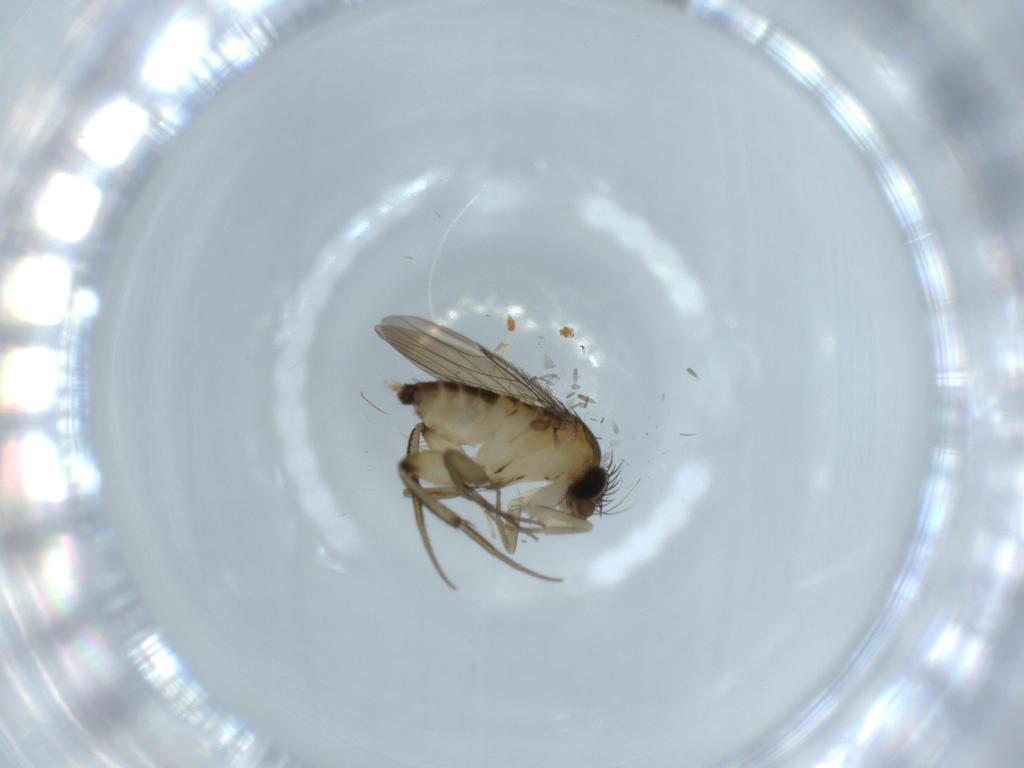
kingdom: Animalia
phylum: Arthropoda
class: Insecta
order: Diptera
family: Phoridae
